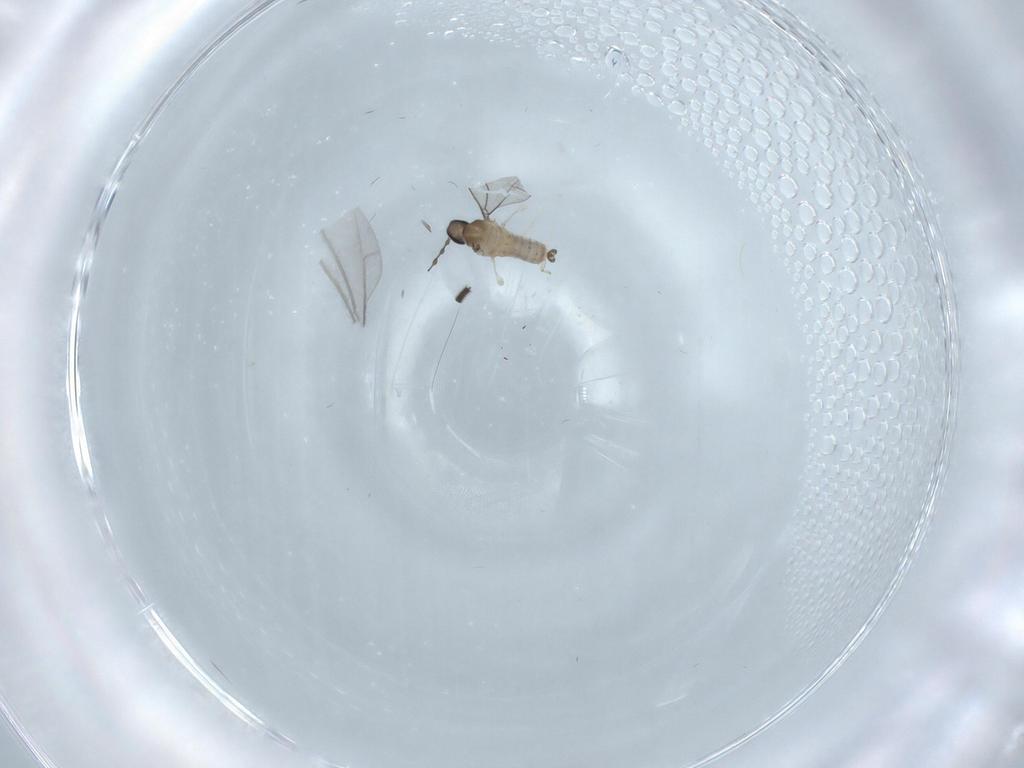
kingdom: Animalia
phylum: Arthropoda
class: Insecta
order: Diptera
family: Cecidomyiidae
